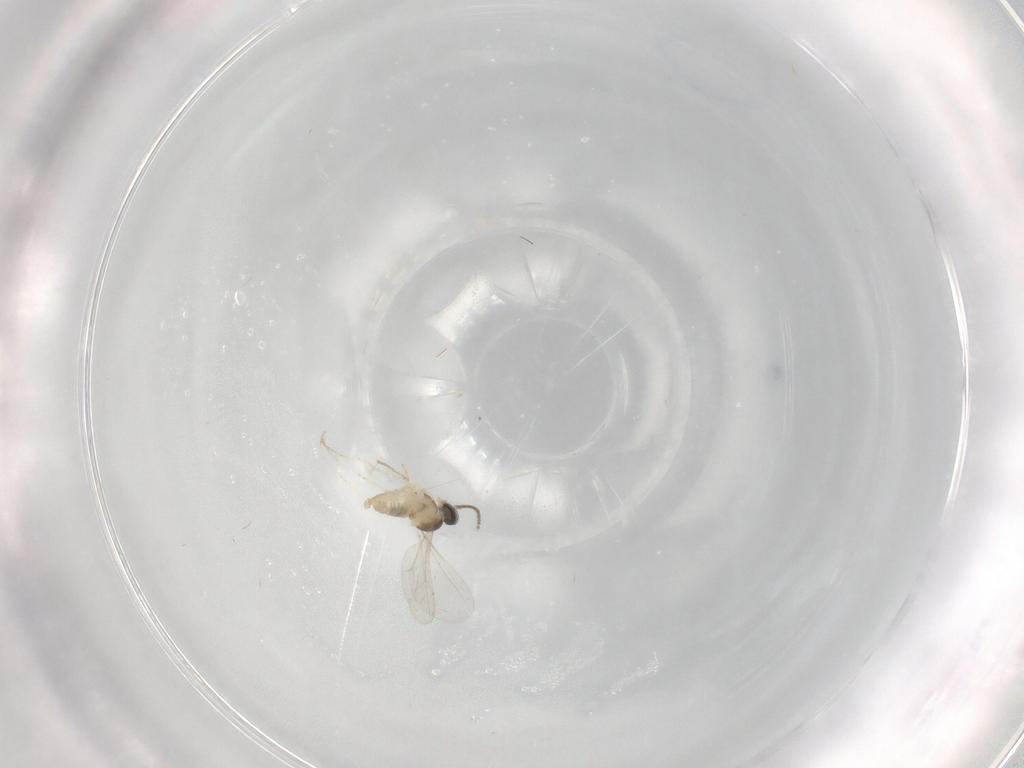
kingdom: Animalia
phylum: Arthropoda
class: Insecta
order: Diptera
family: Cecidomyiidae
